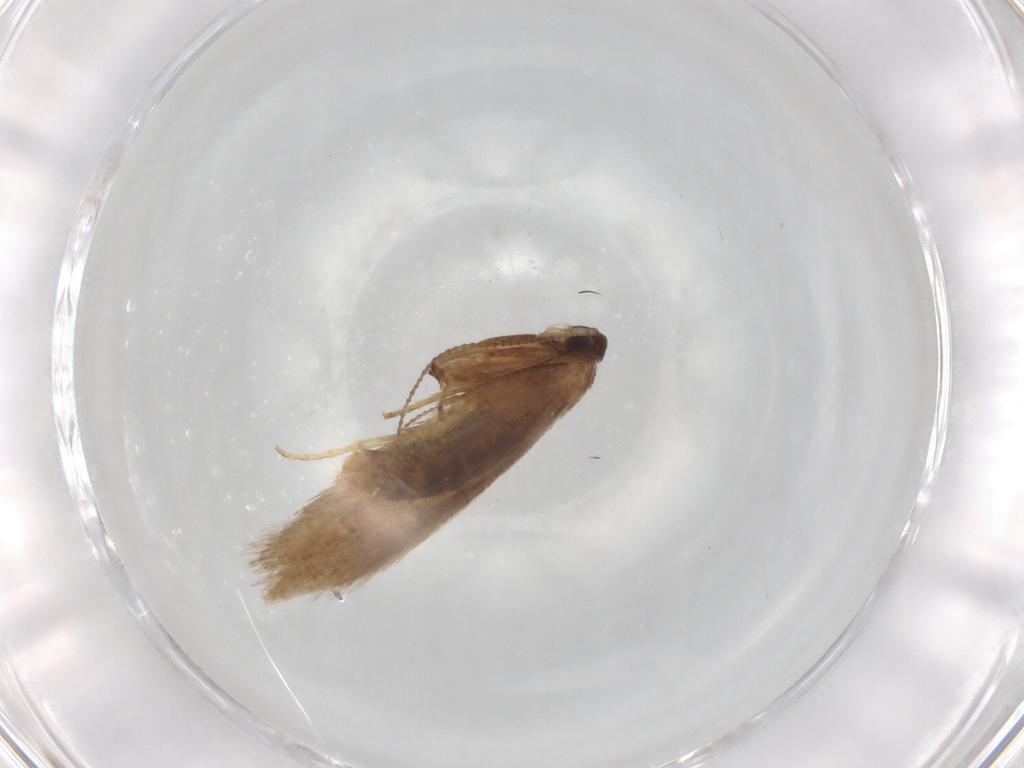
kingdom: Animalia
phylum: Arthropoda
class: Insecta
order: Lepidoptera
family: Nepticulidae
